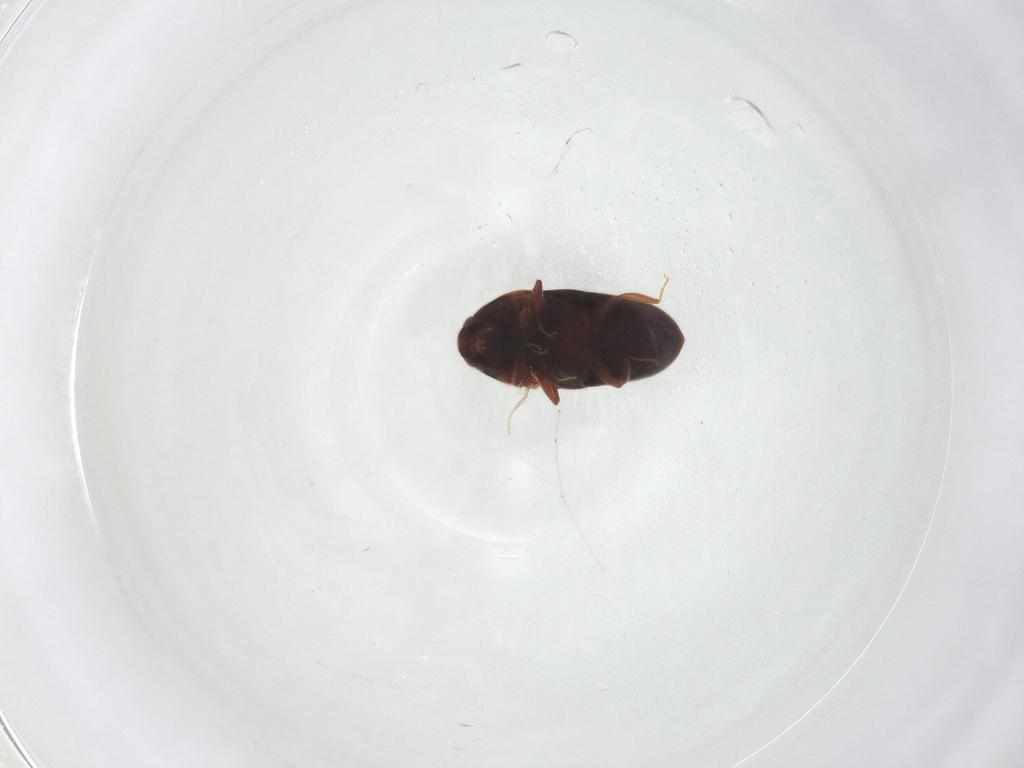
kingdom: Animalia
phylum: Arthropoda
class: Insecta
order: Coleoptera
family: Throscidae
